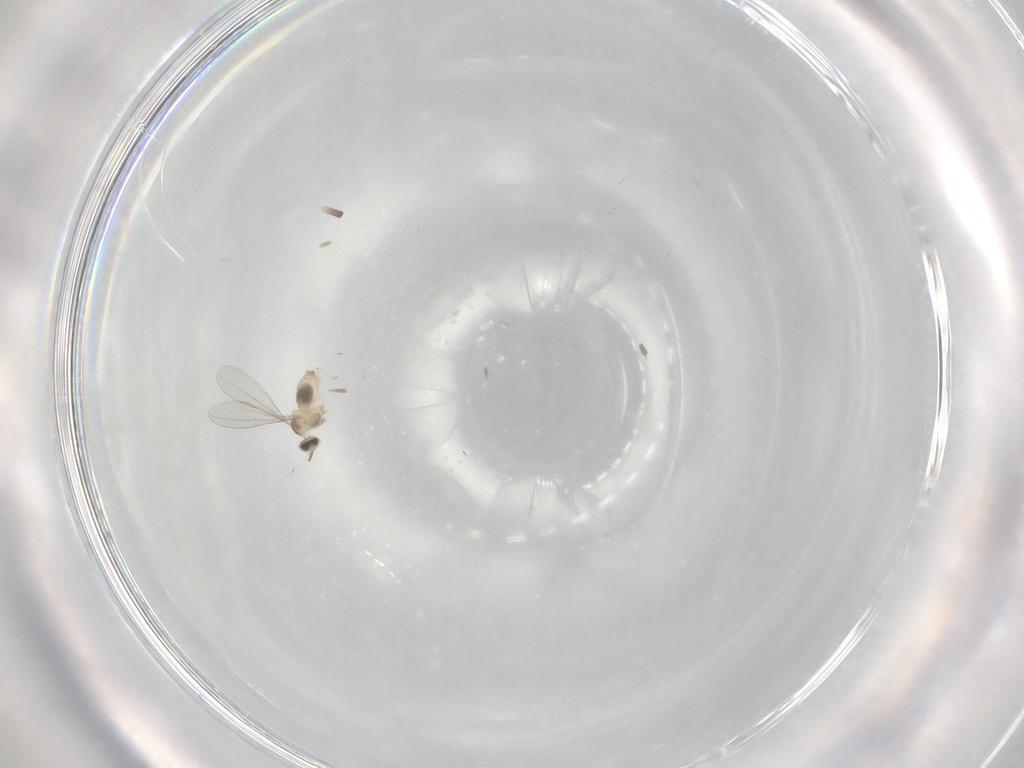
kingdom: Animalia
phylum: Arthropoda
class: Insecta
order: Diptera
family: Cecidomyiidae
